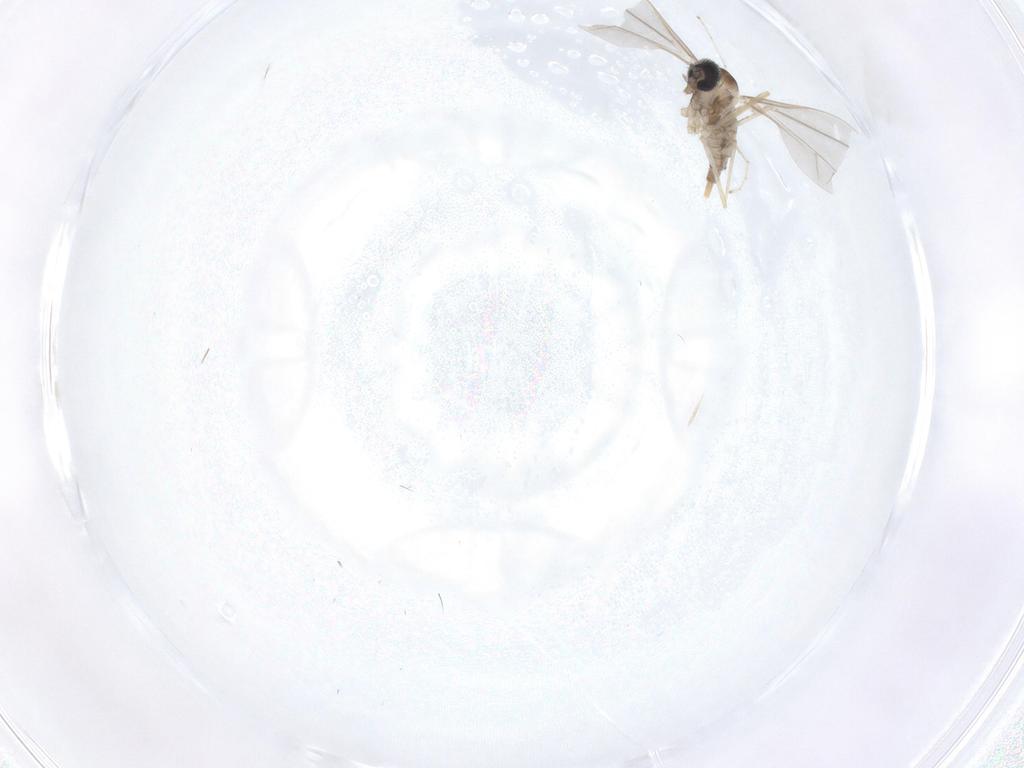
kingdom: Animalia
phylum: Arthropoda
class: Insecta
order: Diptera
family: Cecidomyiidae
